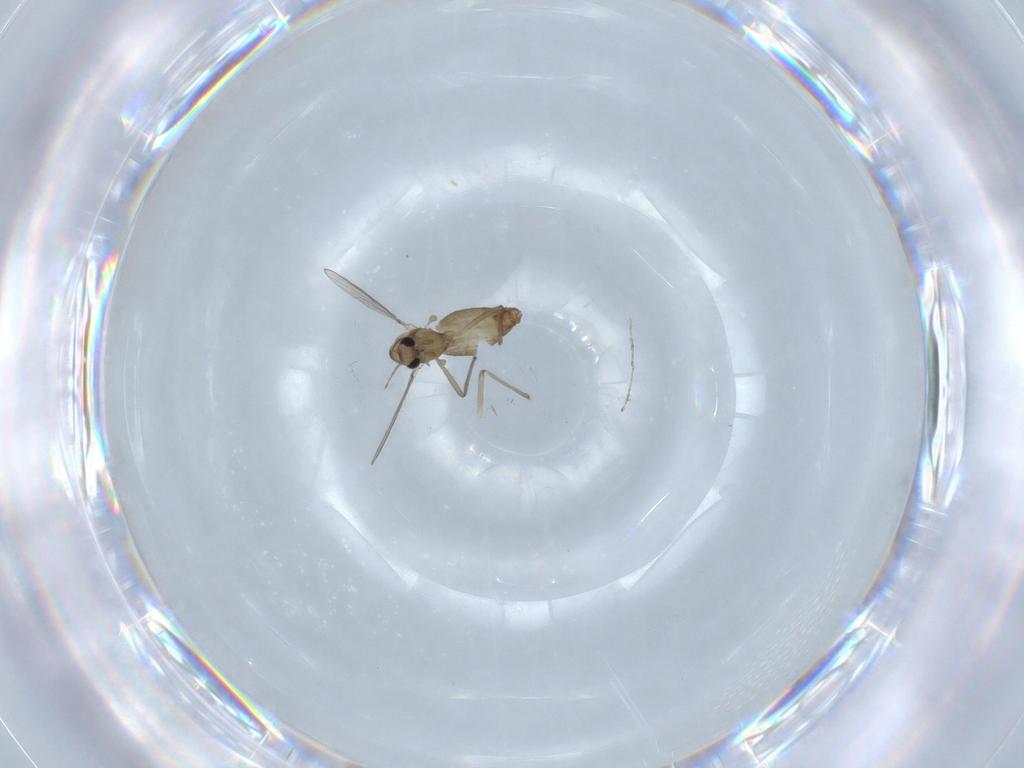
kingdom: Animalia
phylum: Arthropoda
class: Insecta
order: Diptera
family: Chironomidae
